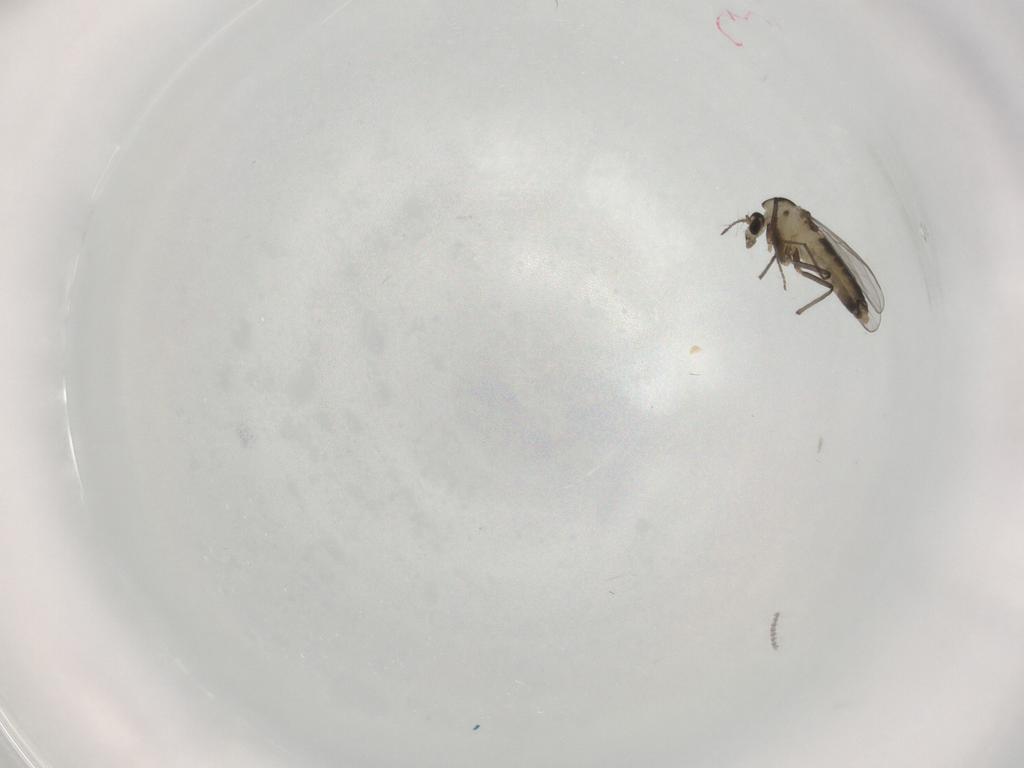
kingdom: Animalia
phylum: Arthropoda
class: Insecta
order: Diptera
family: Chironomidae
